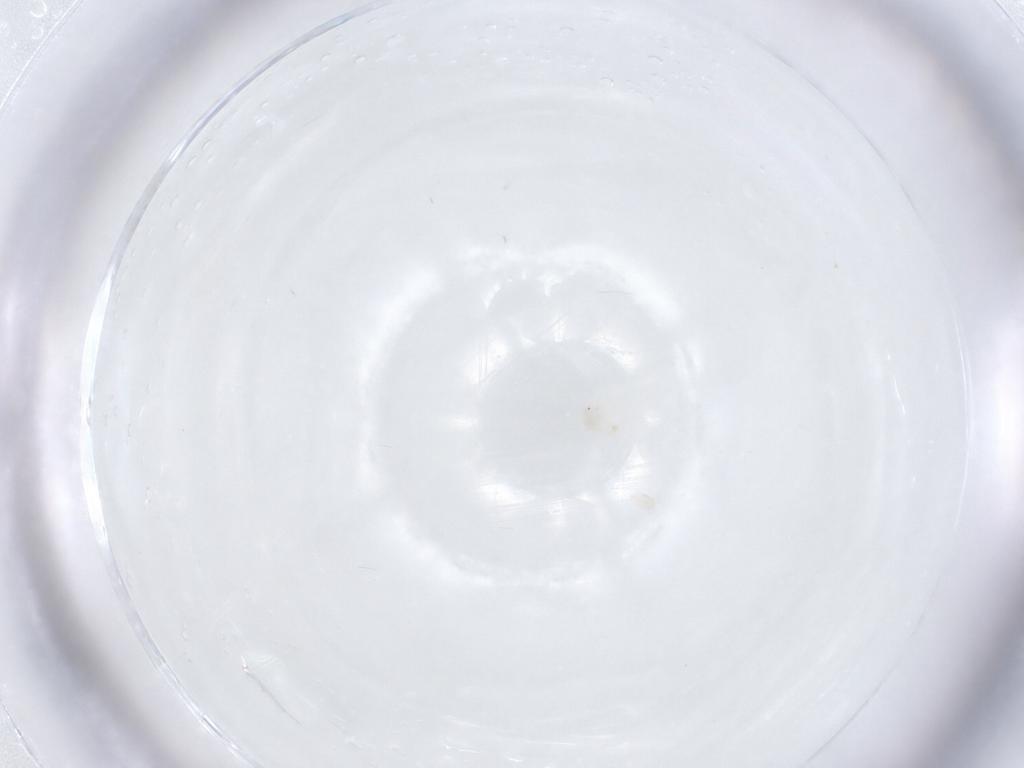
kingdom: Animalia
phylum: Arthropoda
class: Arachnida
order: Trombidiformes
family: Anystidae
